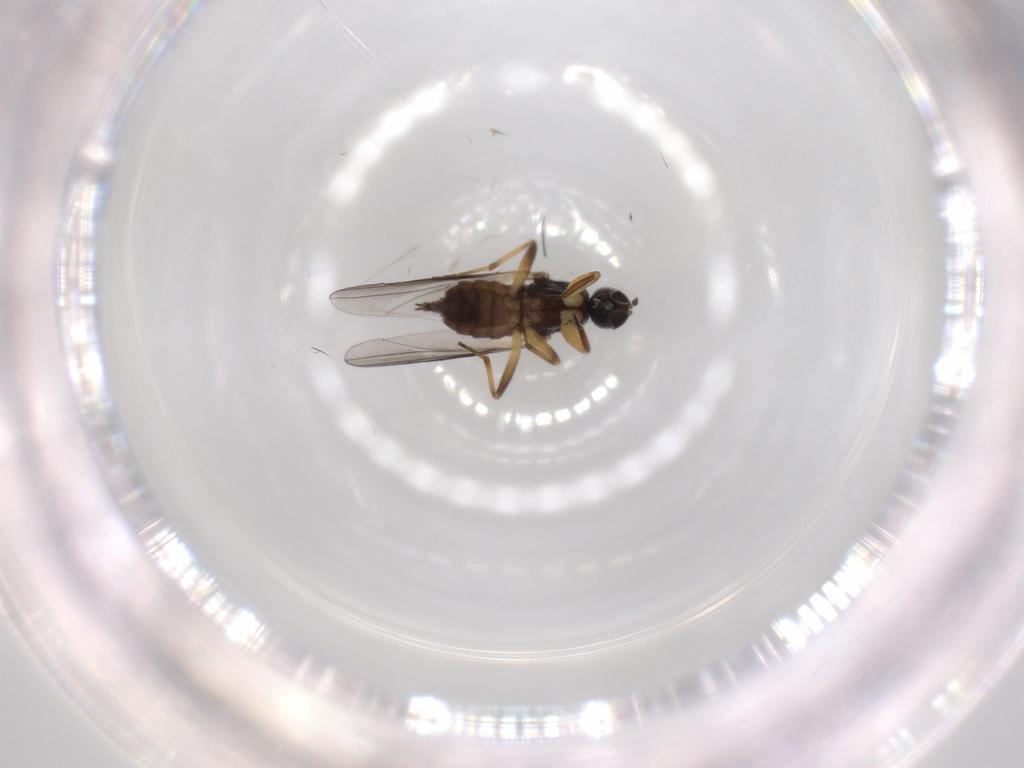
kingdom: Animalia
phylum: Arthropoda
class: Insecta
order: Diptera
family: Hybotidae
